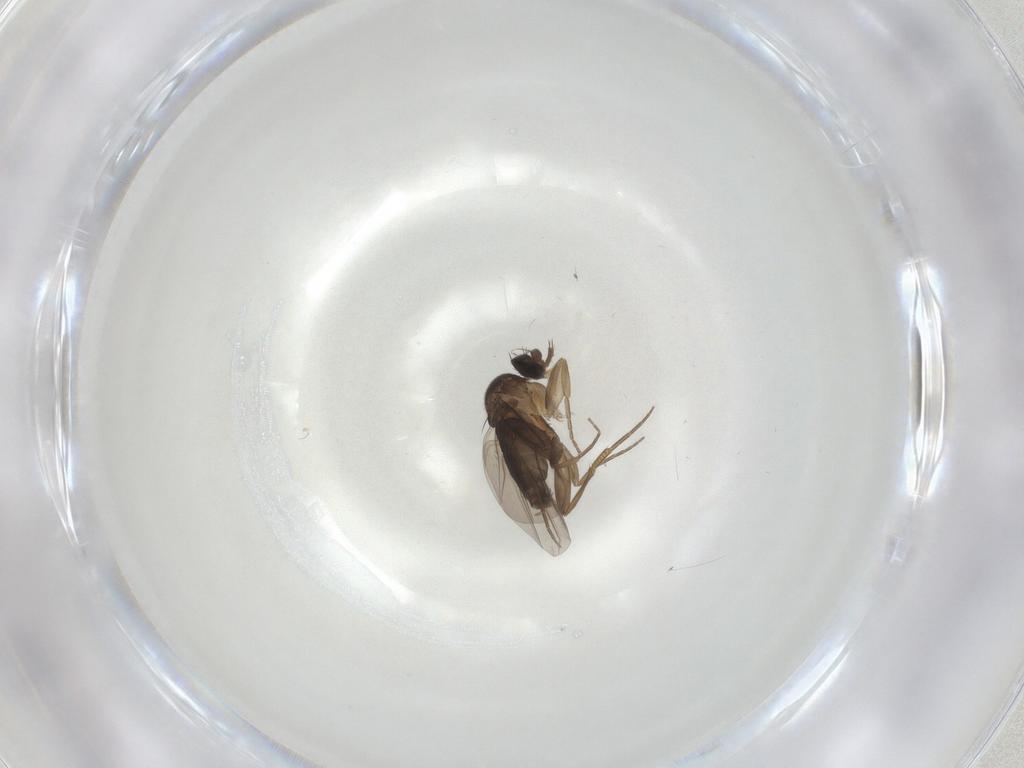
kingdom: Animalia
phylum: Arthropoda
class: Insecta
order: Diptera
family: Phoridae
